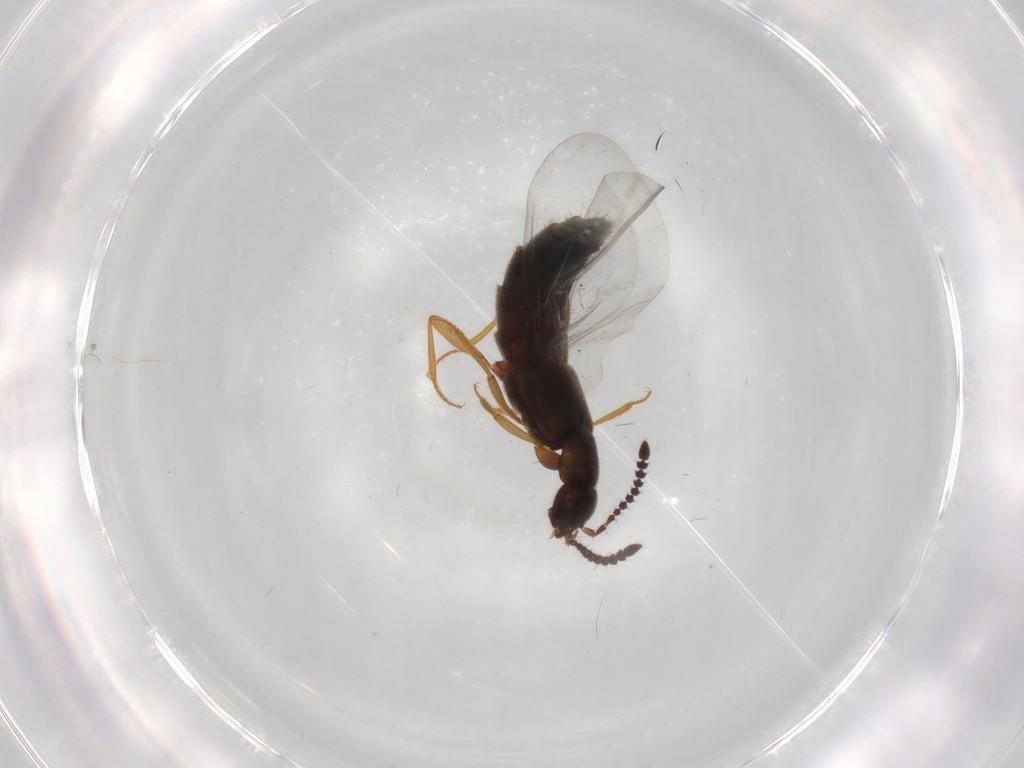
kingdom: Animalia
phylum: Arthropoda
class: Insecta
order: Coleoptera
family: Staphylinidae
